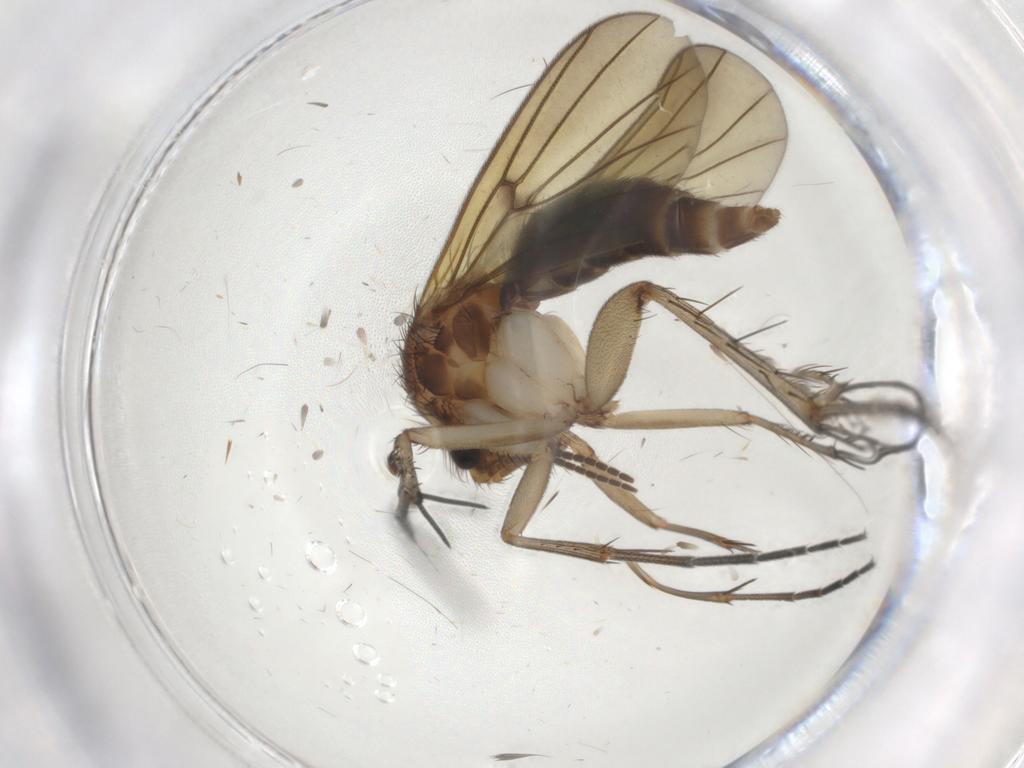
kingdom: Animalia
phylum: Arthropoda
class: Insecta
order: Diptera
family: Mycetophilidae
